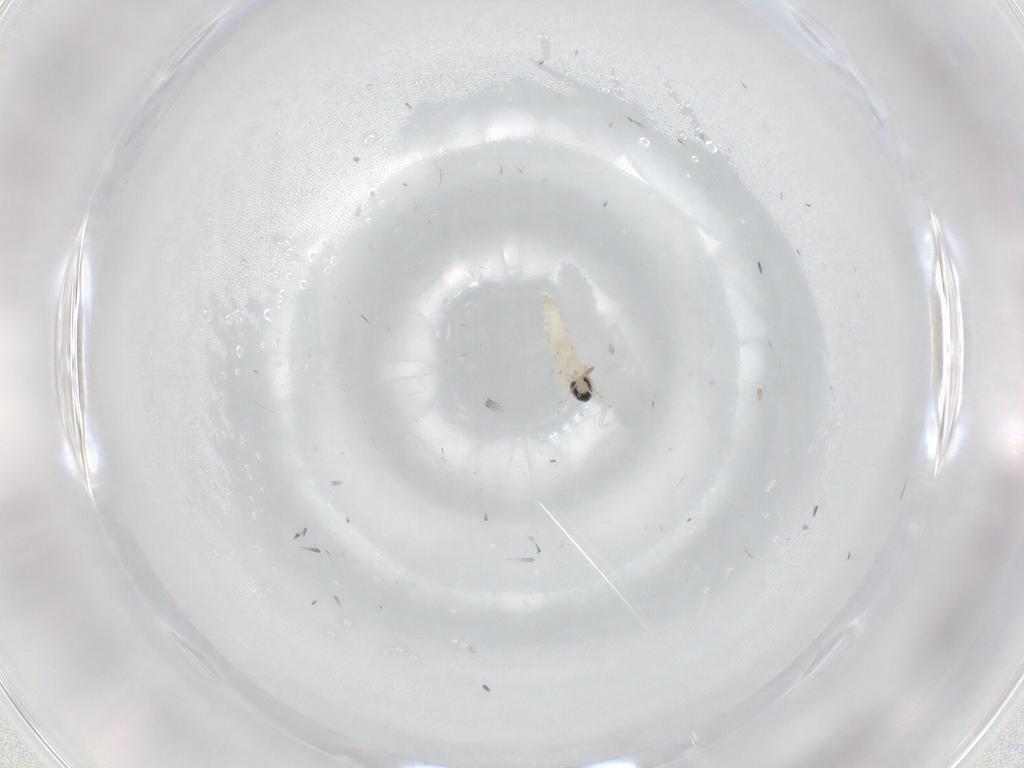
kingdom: Animalia
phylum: Arthropoda
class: Insecta
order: Diptera
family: Cecidomyiidae
